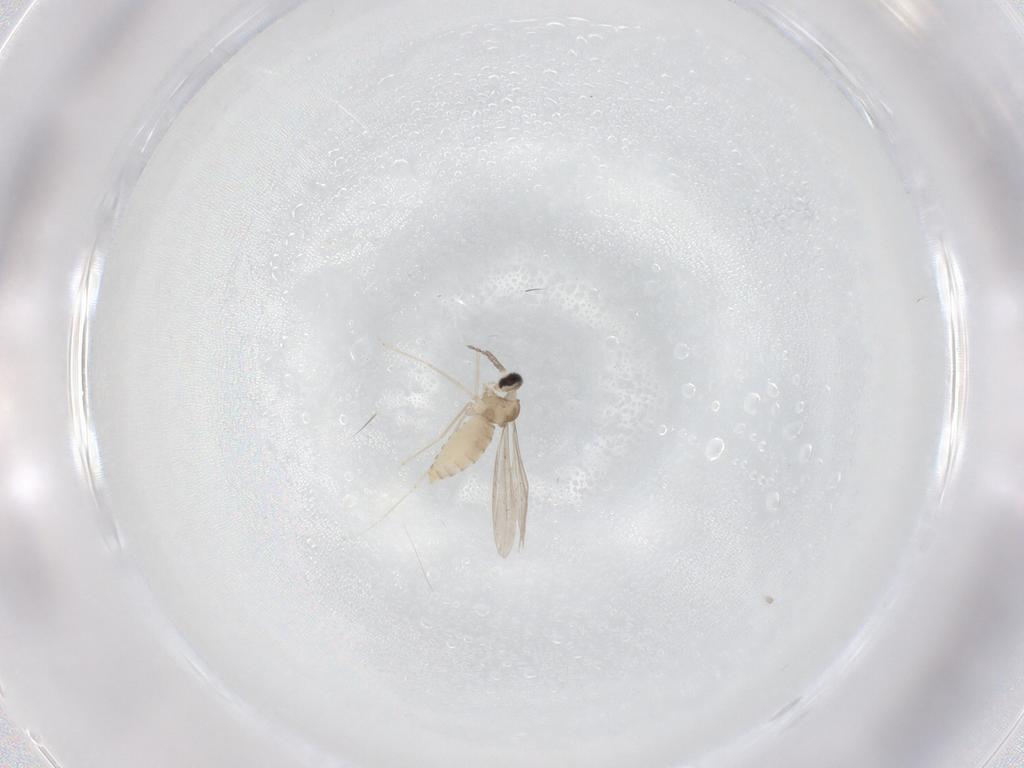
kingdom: Animalia
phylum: Arthropoda
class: Insecta
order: Diptera
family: Cecidomyiidae
